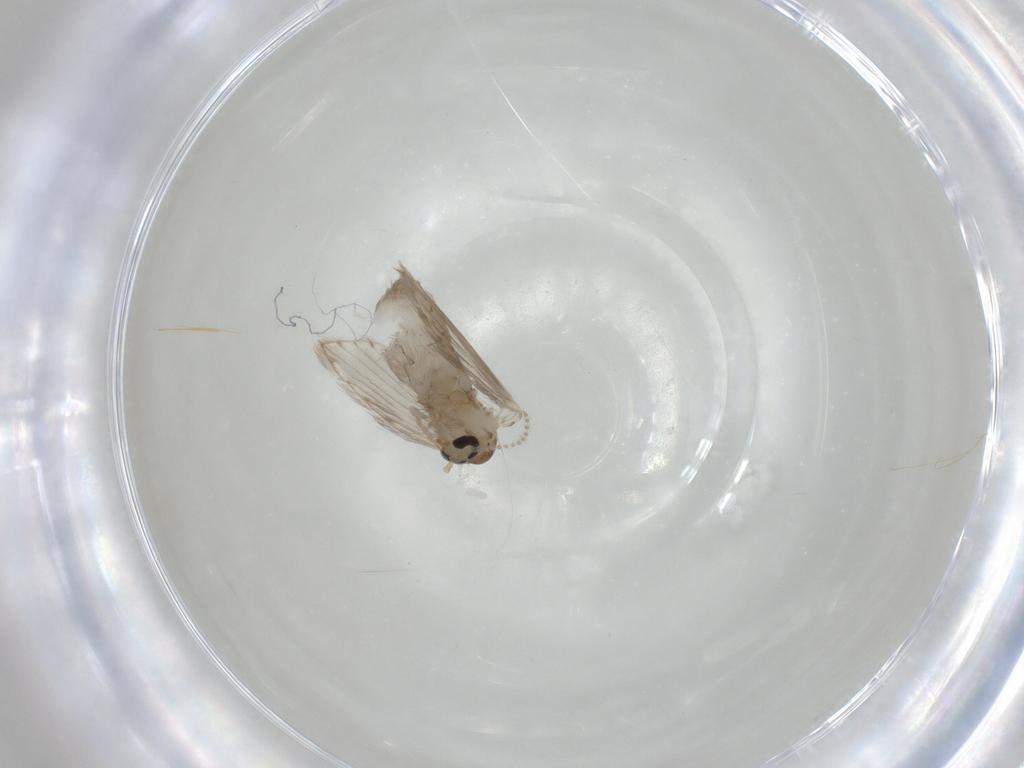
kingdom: Animalia
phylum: Arthropoda
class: Insecta
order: Diptera
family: Psychodidae
